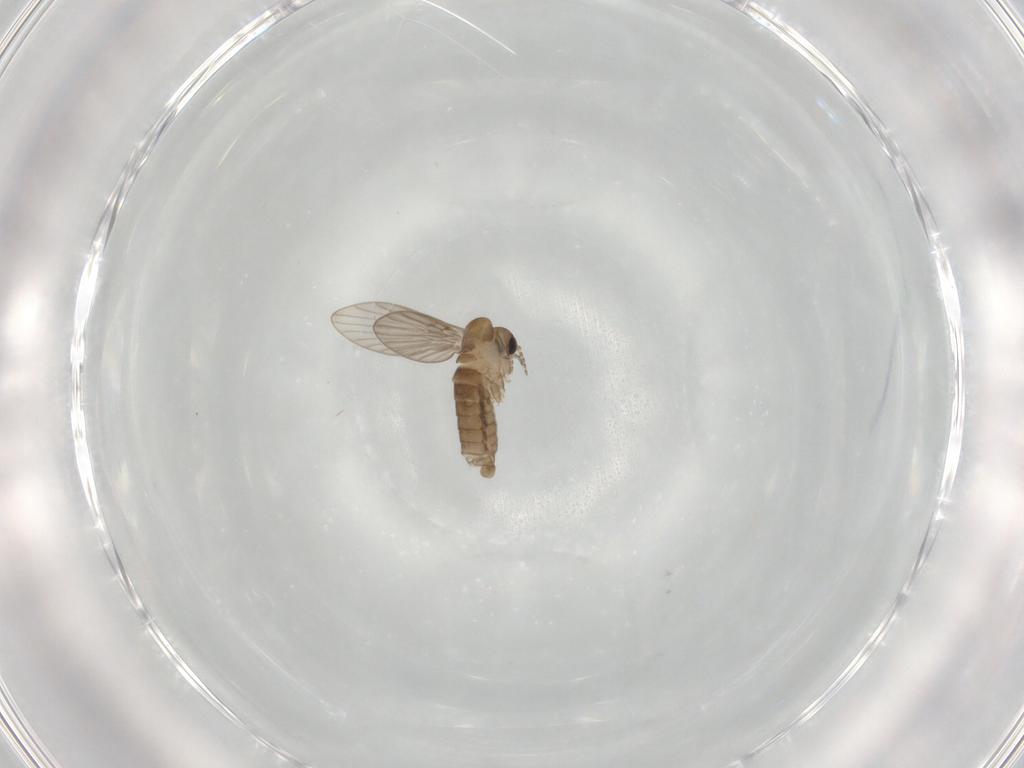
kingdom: Animalia
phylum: Arthropoda
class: Insecta
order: Diptera
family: Psychodidae
